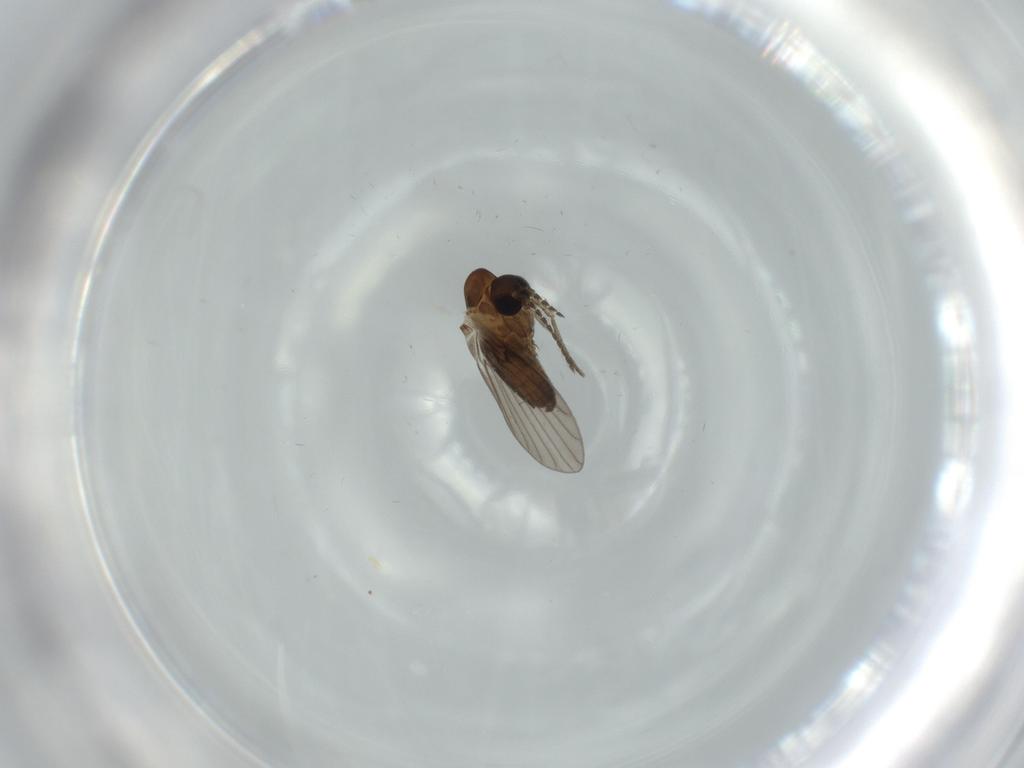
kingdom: Animalia
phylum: Arthropoda
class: Insecta
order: Diptera
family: Psychodidae
